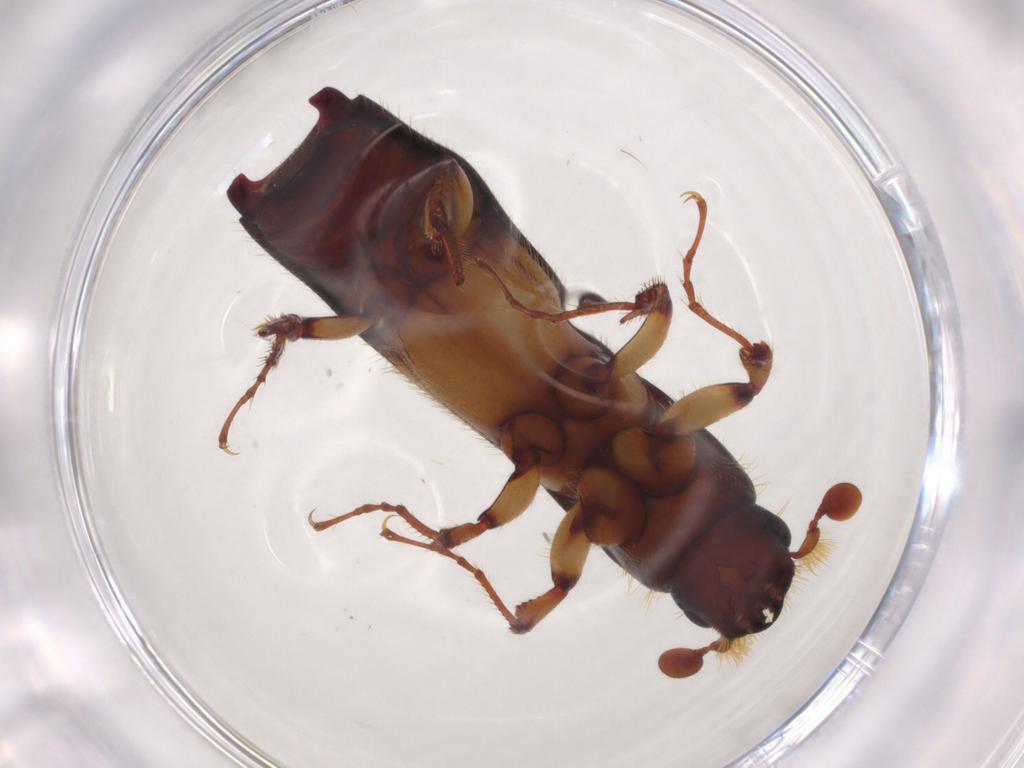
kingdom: Animalia
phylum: Arthropoda
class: Insecta
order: Coleoptera
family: Curculionidae
